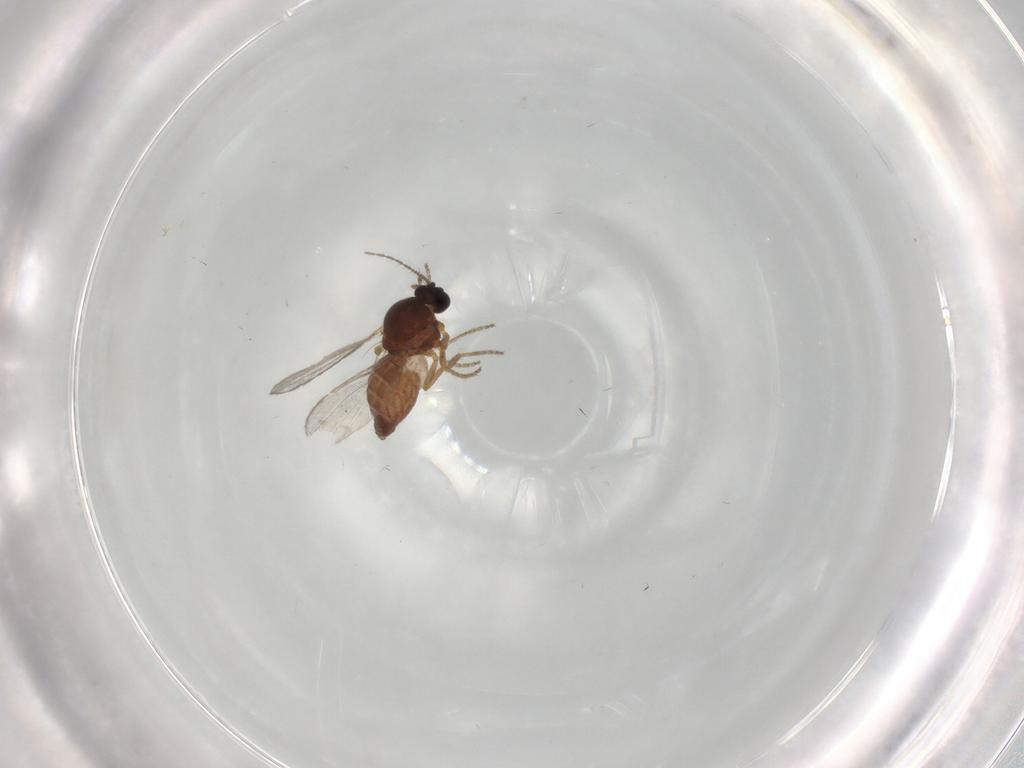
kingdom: Animalia
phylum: Arthropoda
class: Insecta
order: Diptera
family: Ceratopogonidae
